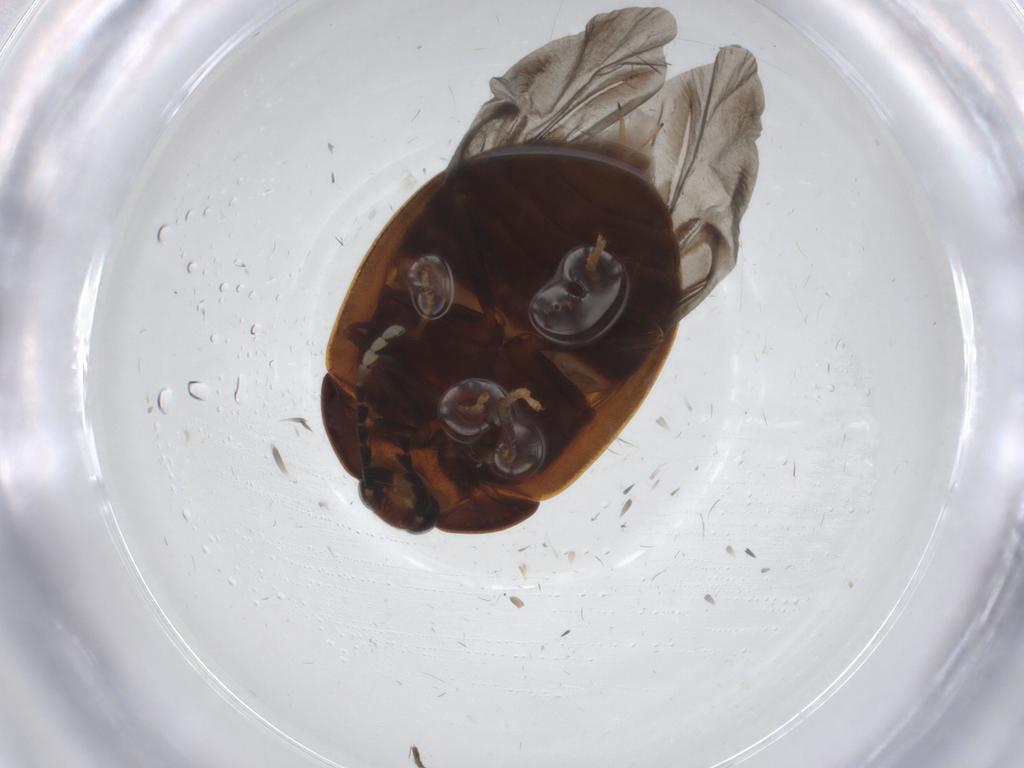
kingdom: Animalia
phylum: Arthropoda
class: Insecta
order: Coleoptera
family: Psephenidae
